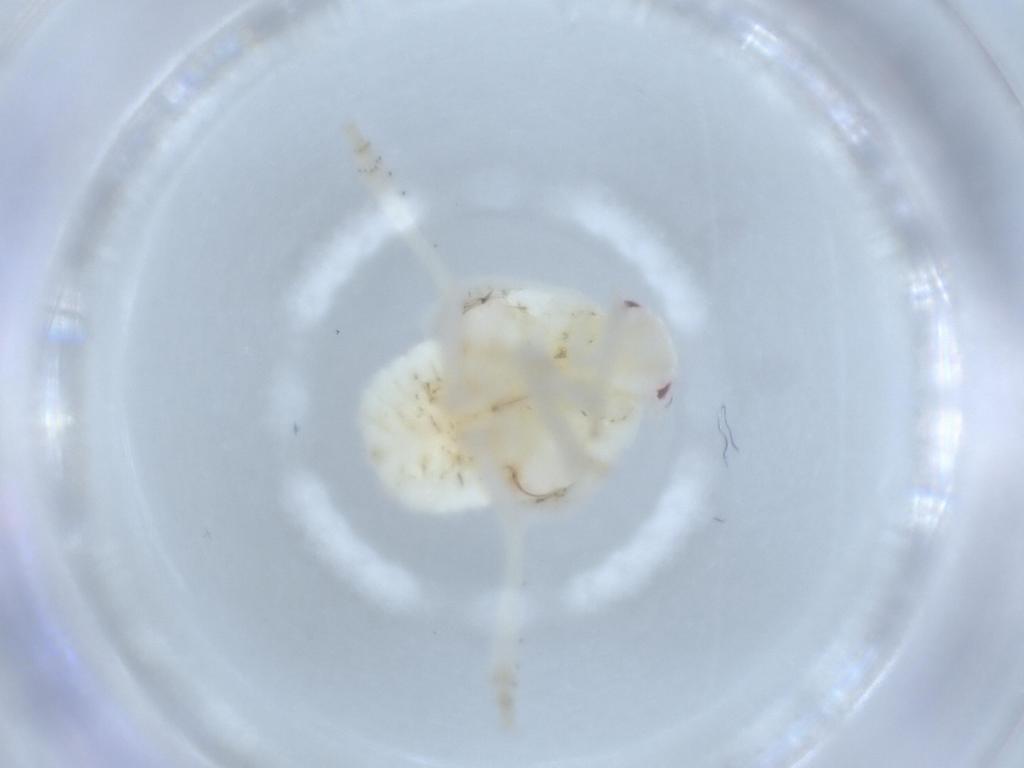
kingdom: Animalia
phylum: Arthropoda
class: Insecta
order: Hemiptera
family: Flatidae
